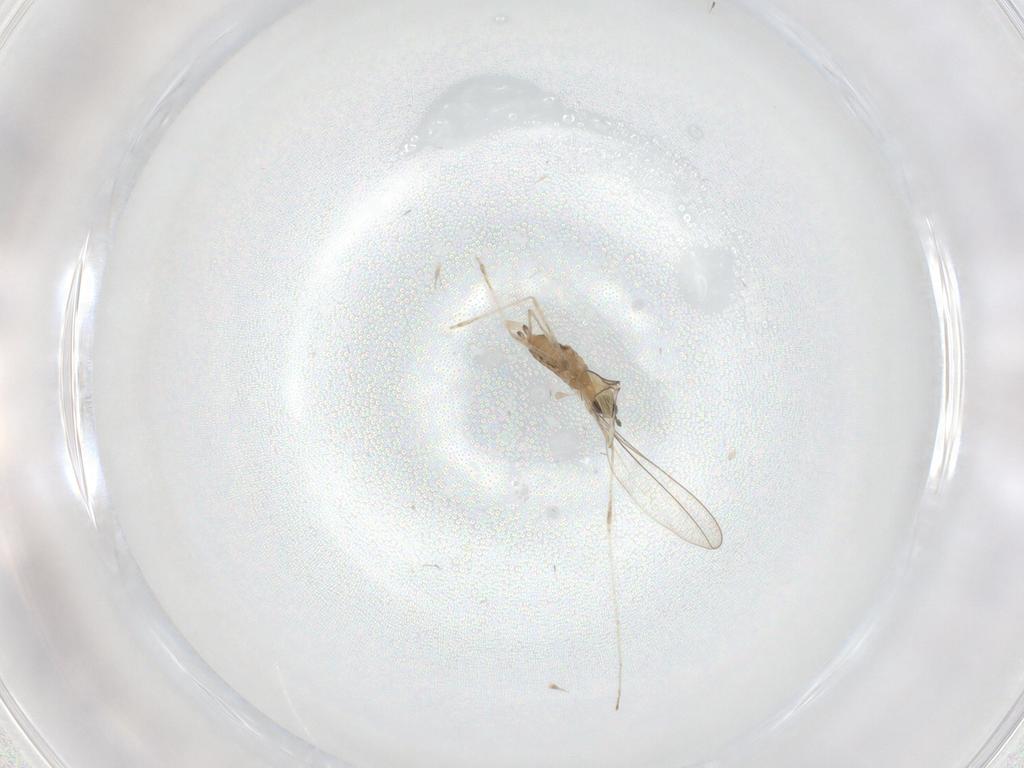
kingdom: Animalia
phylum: Arthropoda
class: Insecta
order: Diptera
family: Cecidomyiidae
